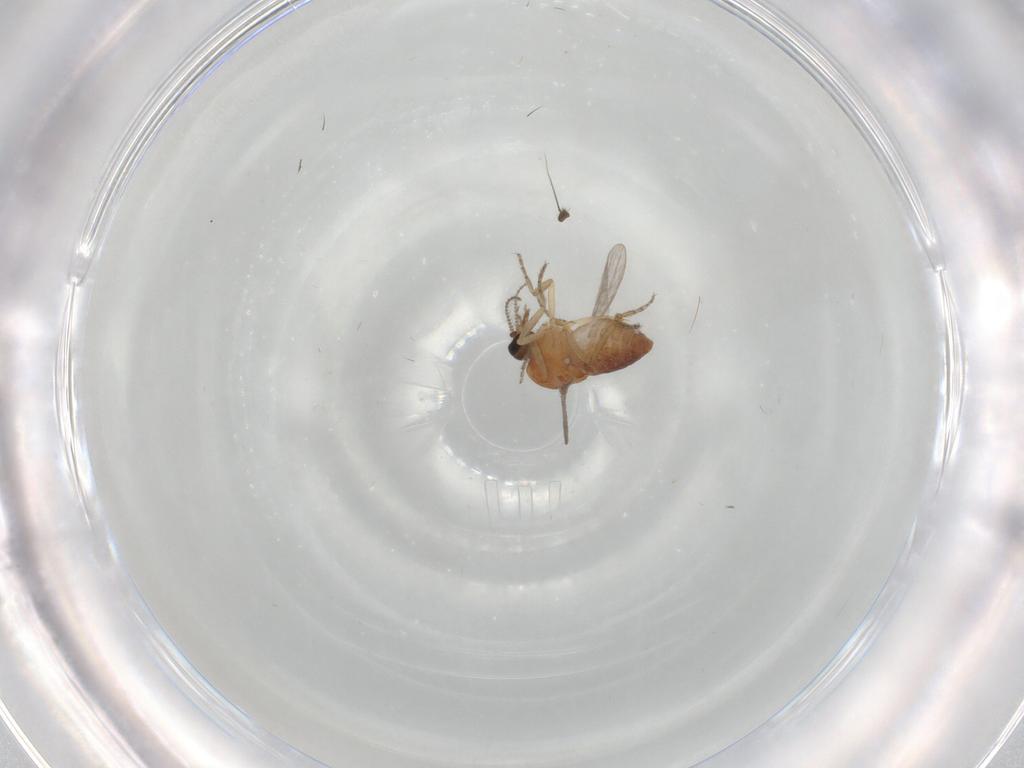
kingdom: Animalia
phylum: Arthropoda
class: Insecta
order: Diptera
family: Ceratopogonidae
